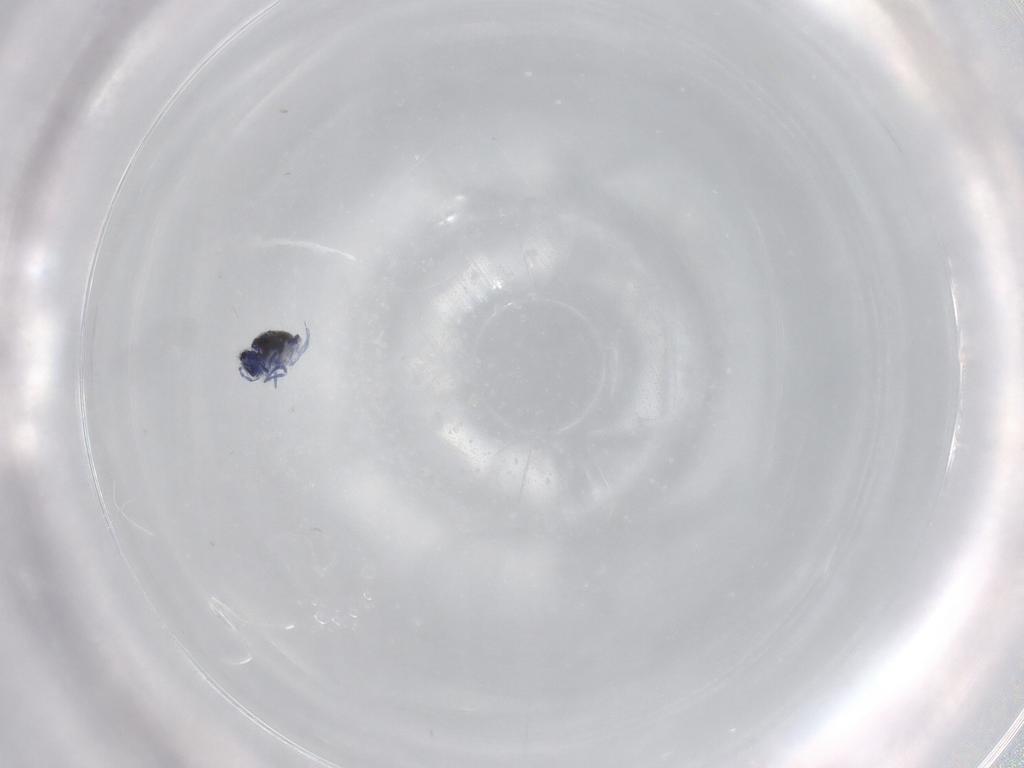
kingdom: Animalia
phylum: Arthropoda
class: Collembola
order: Symphypleona
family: Sminthurididae
